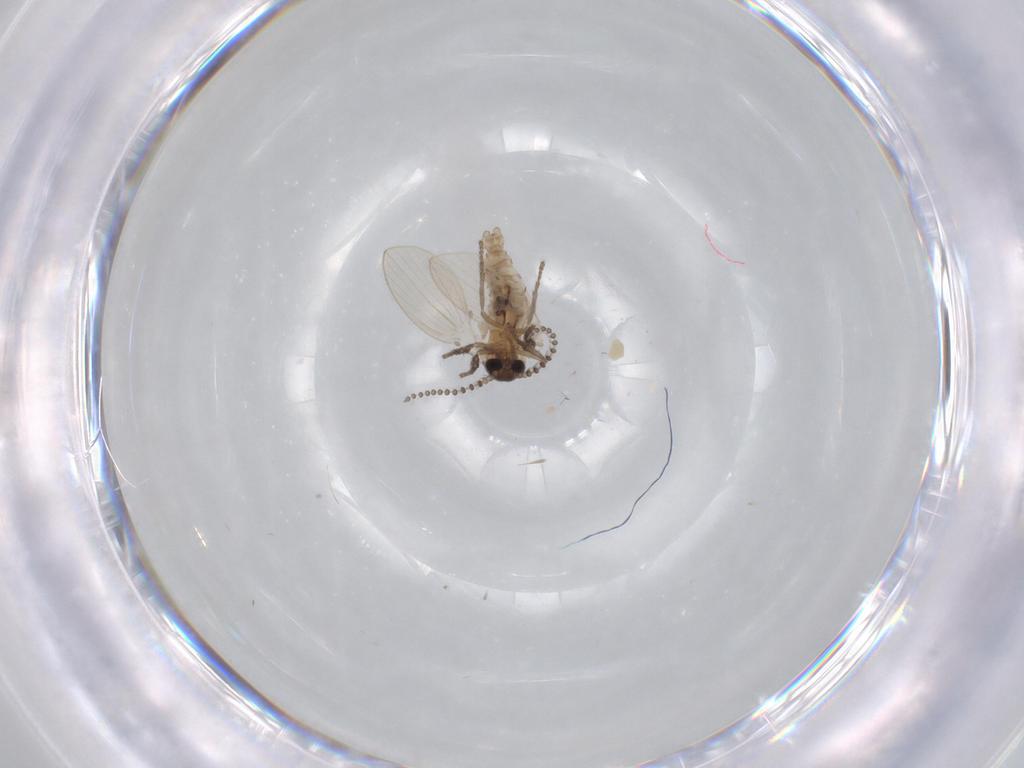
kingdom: Animalia
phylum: Arthropoda
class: Insecta
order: Diptera
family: Psychodidae
